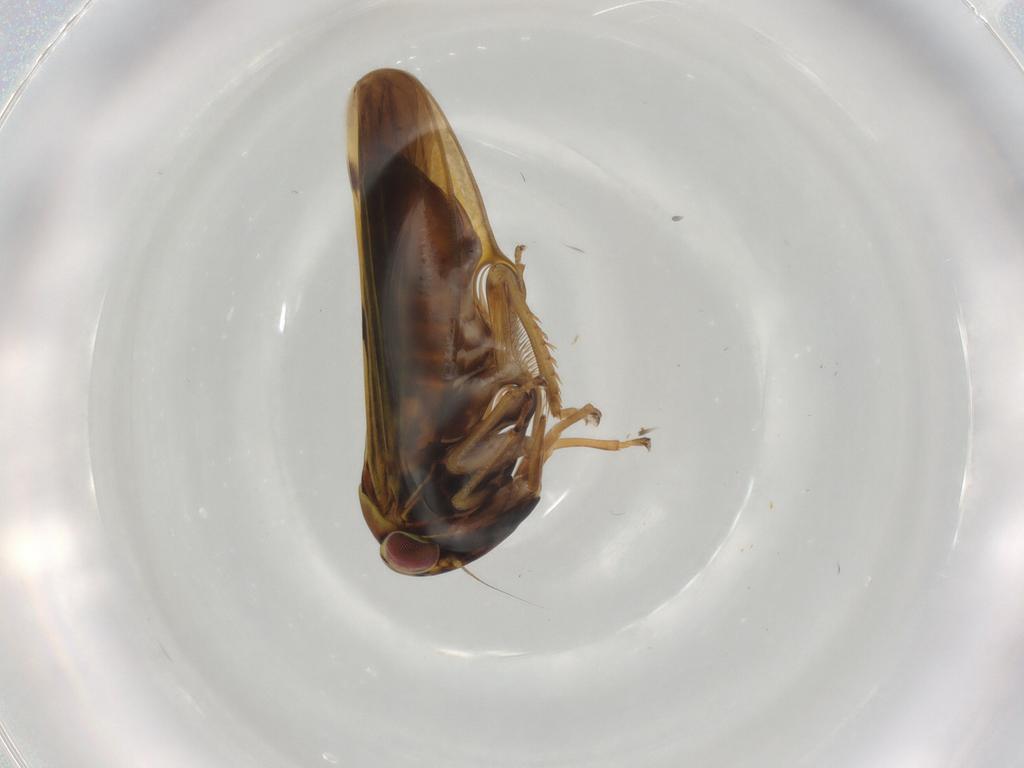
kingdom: Animalia
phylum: Arthropoda
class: Insecta
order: Hemiptera
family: Cicadellidae
